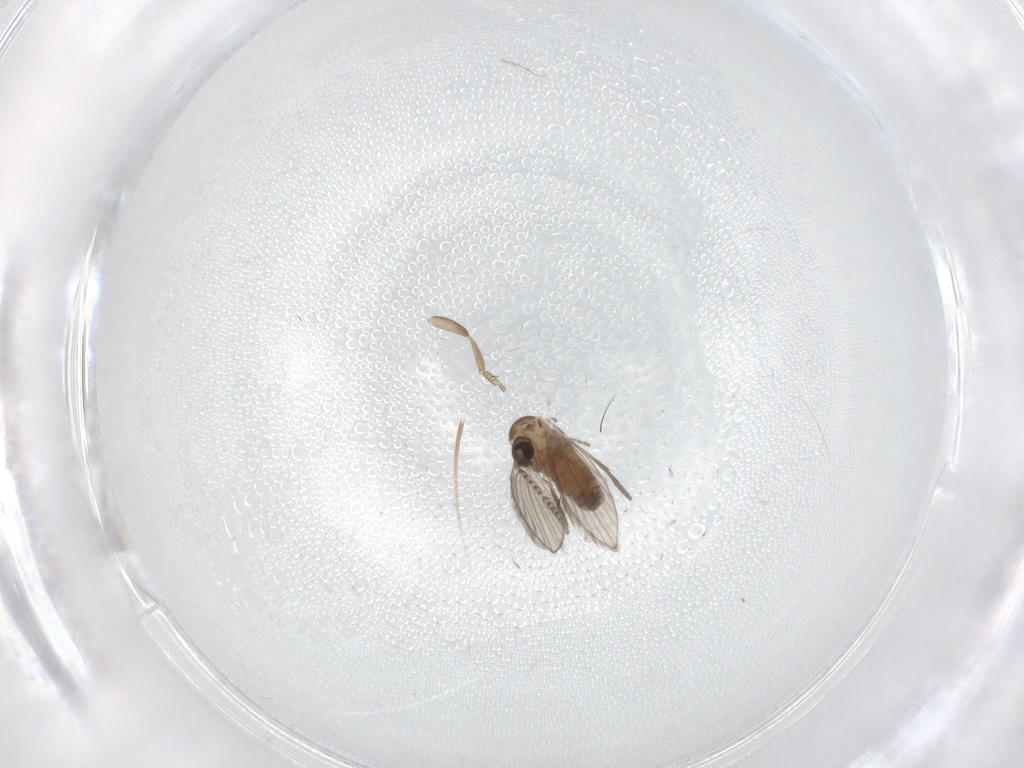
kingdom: Animalia
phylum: Arthropoda
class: Insecta
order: Diptera
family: Psychodidae
